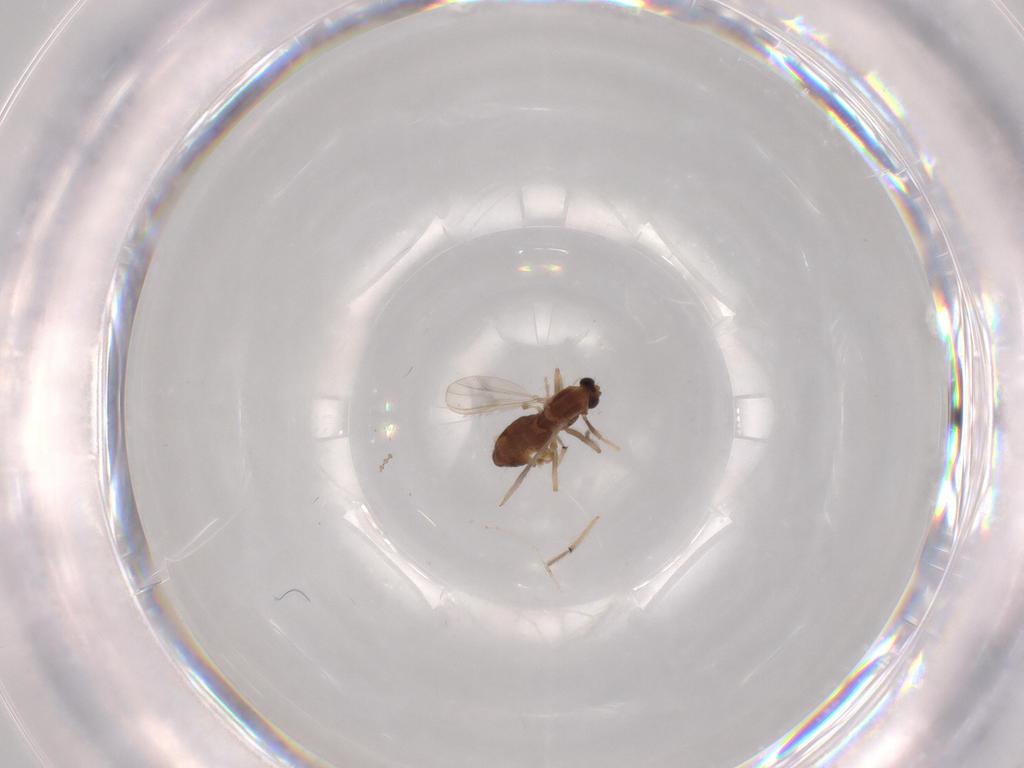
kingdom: Animalia
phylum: Arthropoda
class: Insecta
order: Diptera
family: Chironomidae
